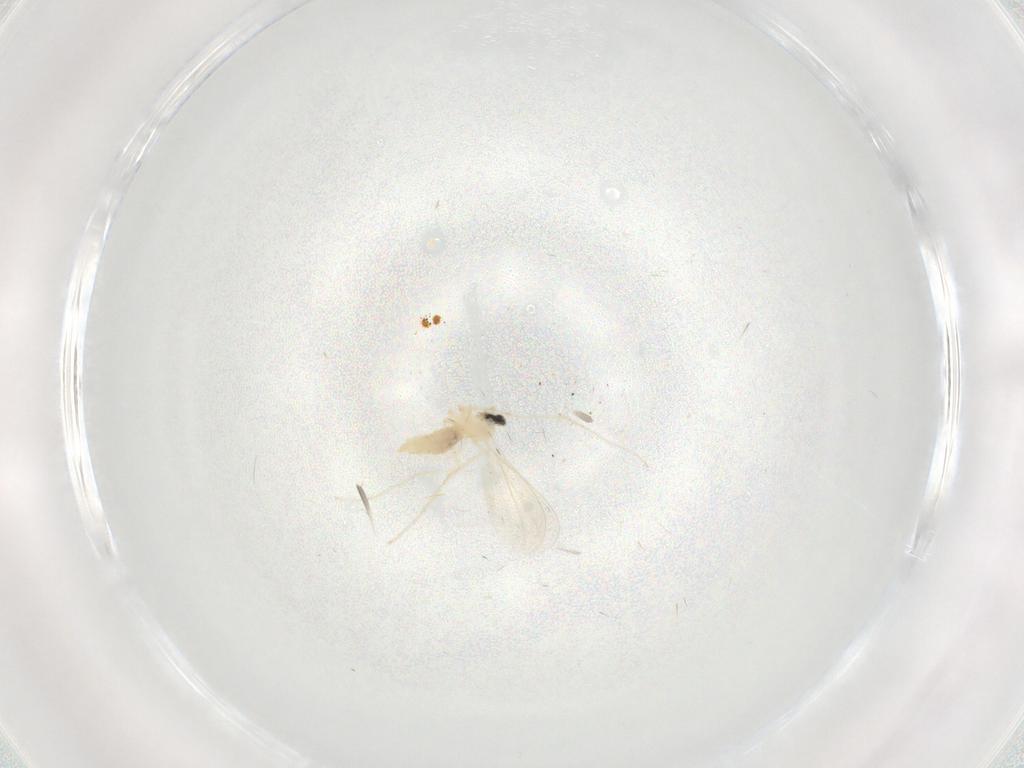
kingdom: Animalia
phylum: Arthropoda
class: Insecta
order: Diptera
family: Cecidomyiidae
